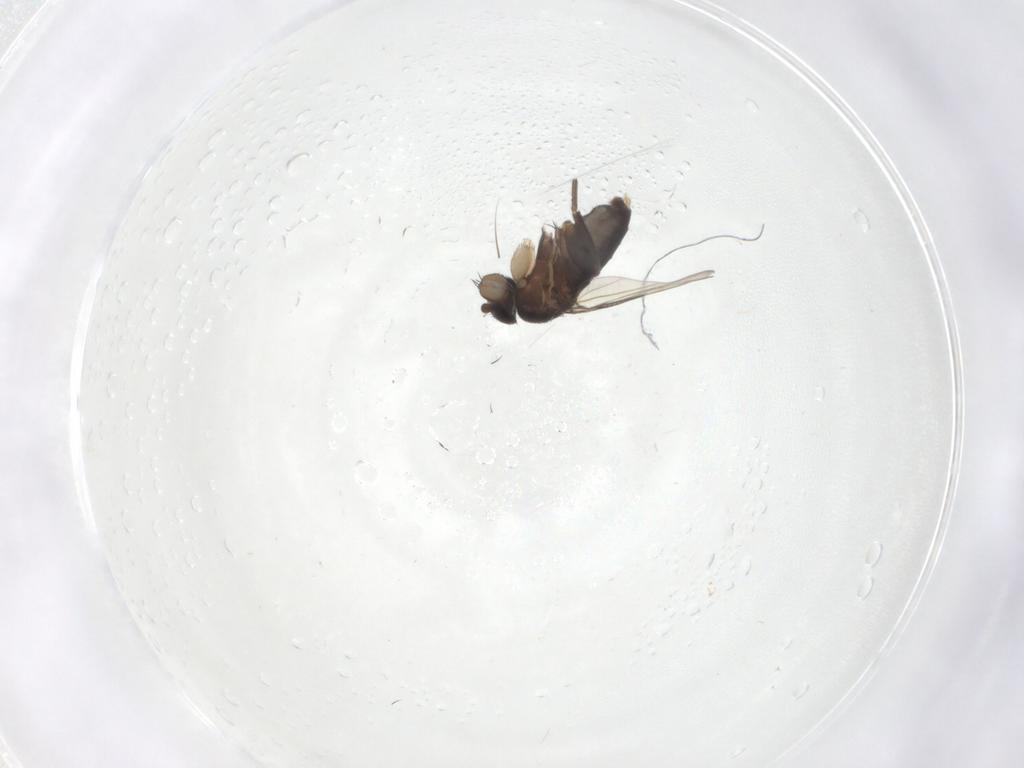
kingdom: Animalia
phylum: Arthropoda
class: Insecta
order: Diptera
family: Phoridae
